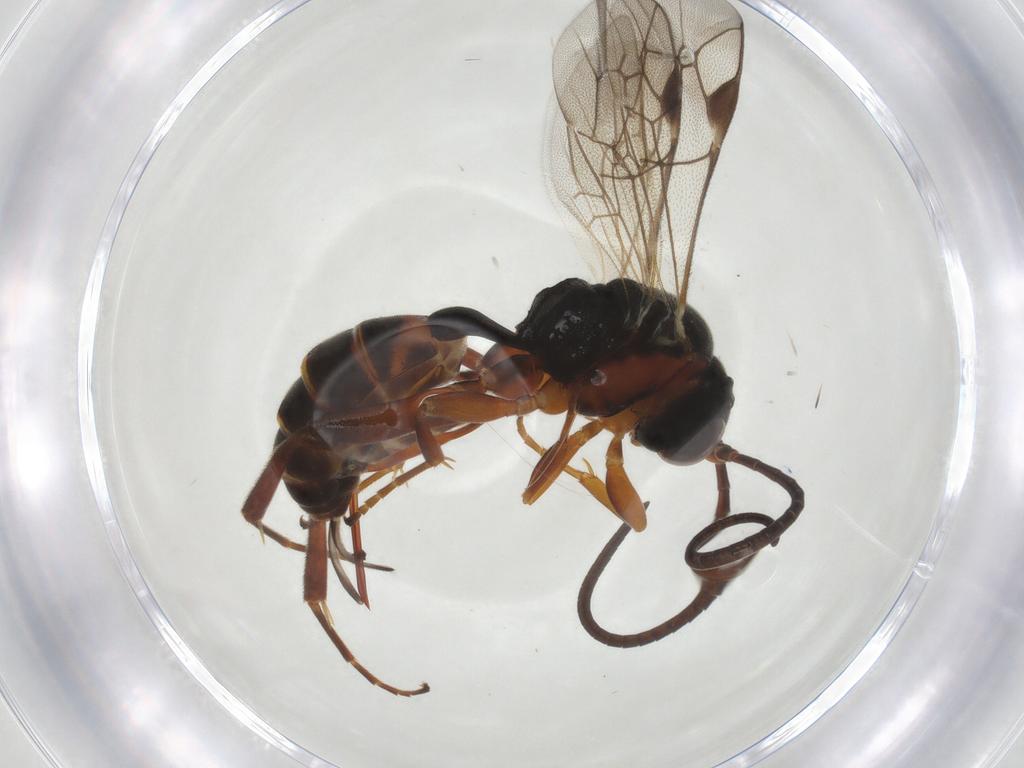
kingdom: Animalia
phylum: Arthropoda
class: Insecta
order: Hymenoptera
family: Ichneumonidae
